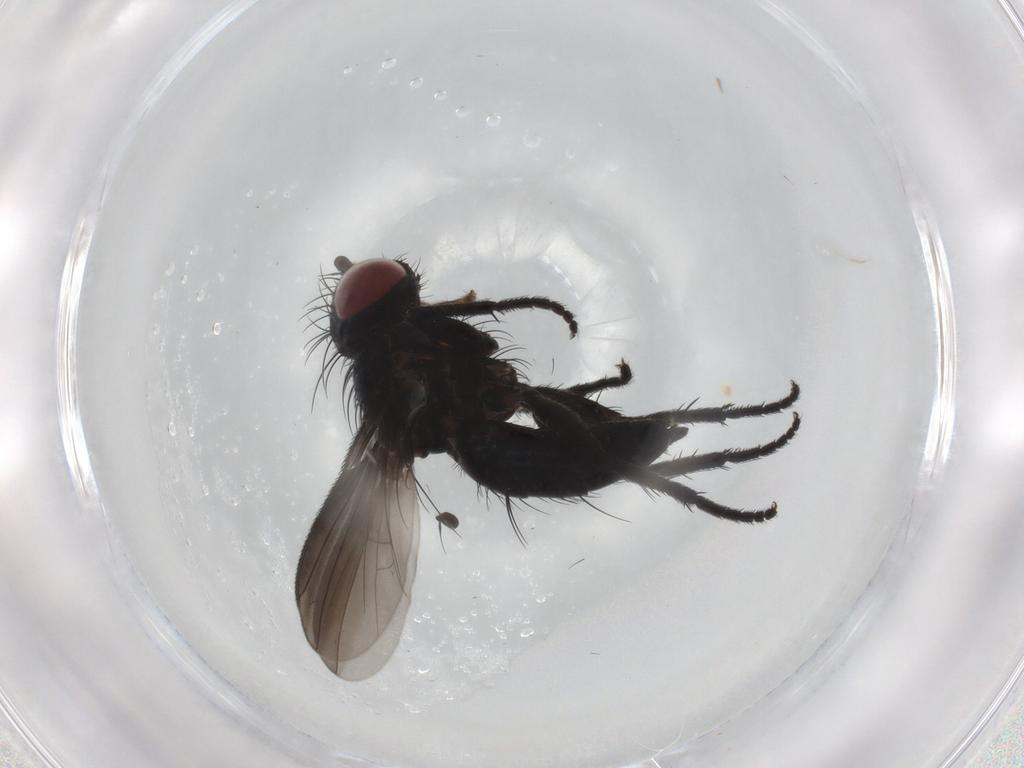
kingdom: Animalia
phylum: Arthropoda
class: Insecta
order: Diptera
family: Tachinidae
